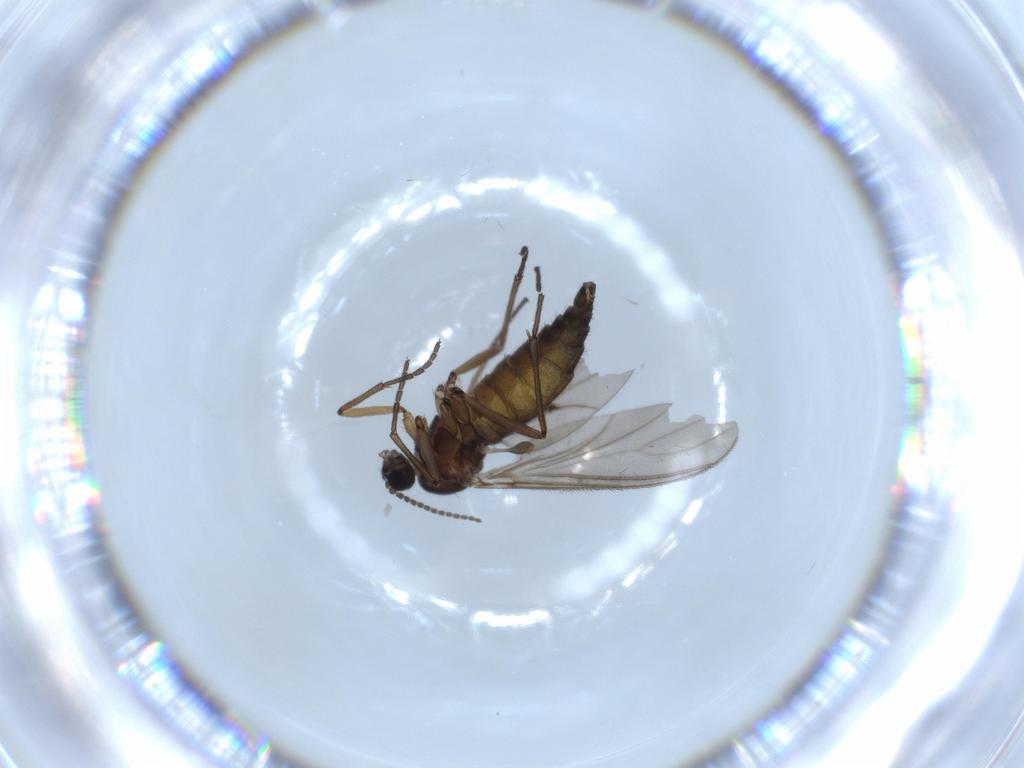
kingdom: Animalia
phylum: Arthropoda
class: Insecta
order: Diptera
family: Sciaridae
